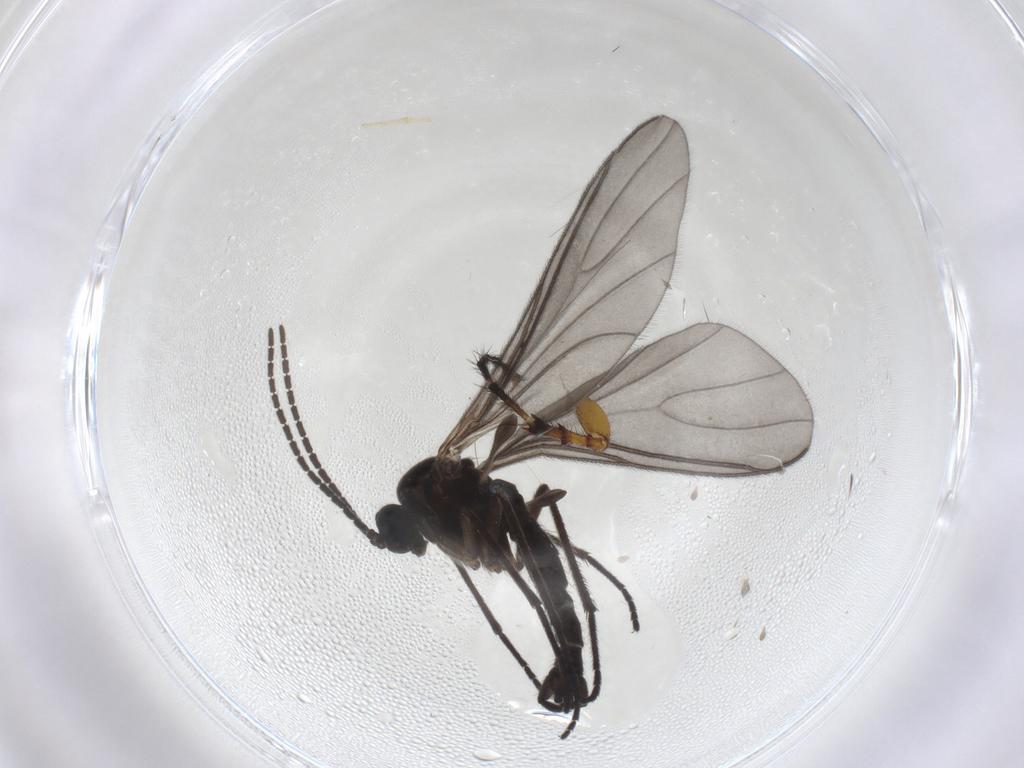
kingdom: Animalia
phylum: Arthropoda
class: Insecta
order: Diptera
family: Sciaridae
